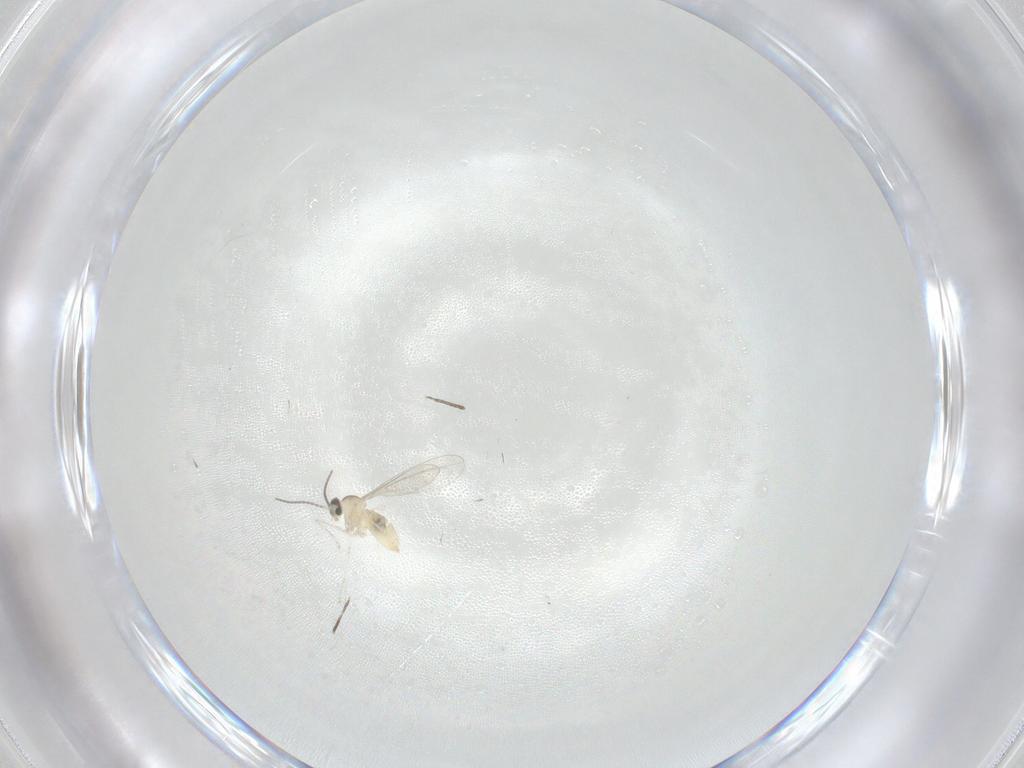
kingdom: Animalia
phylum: Arthropoda
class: Insecta
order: Diptera
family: Cecidomyiidae
